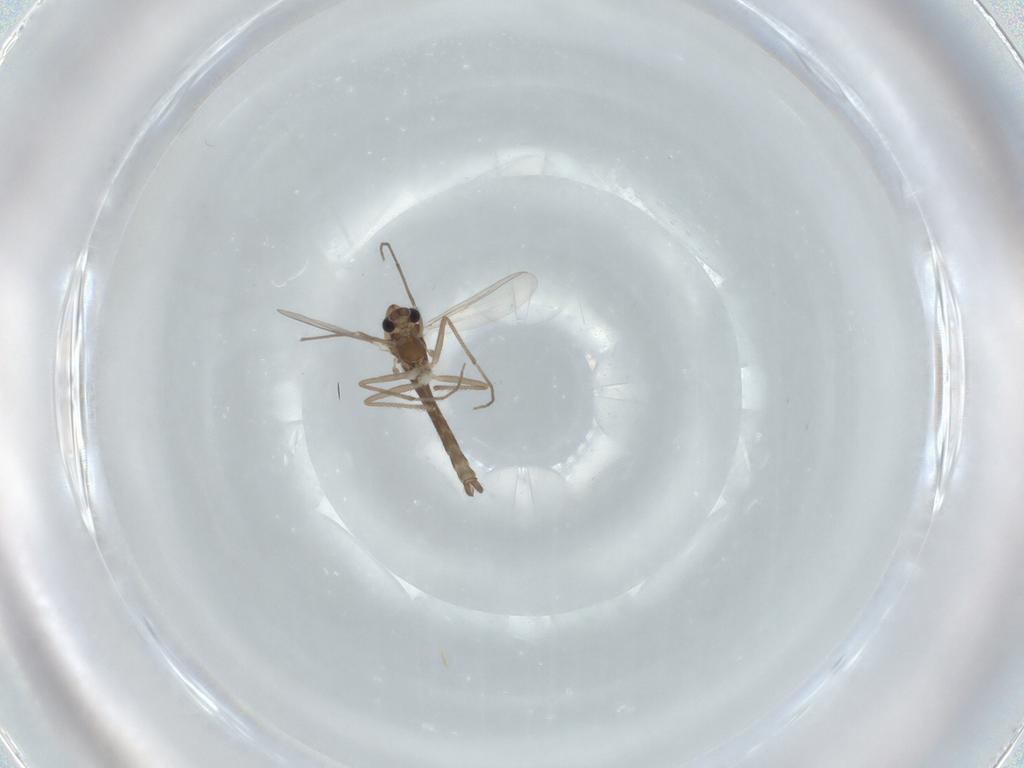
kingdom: Animalia
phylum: Arthropoda
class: Insecta
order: Diptera
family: Chironomidae
